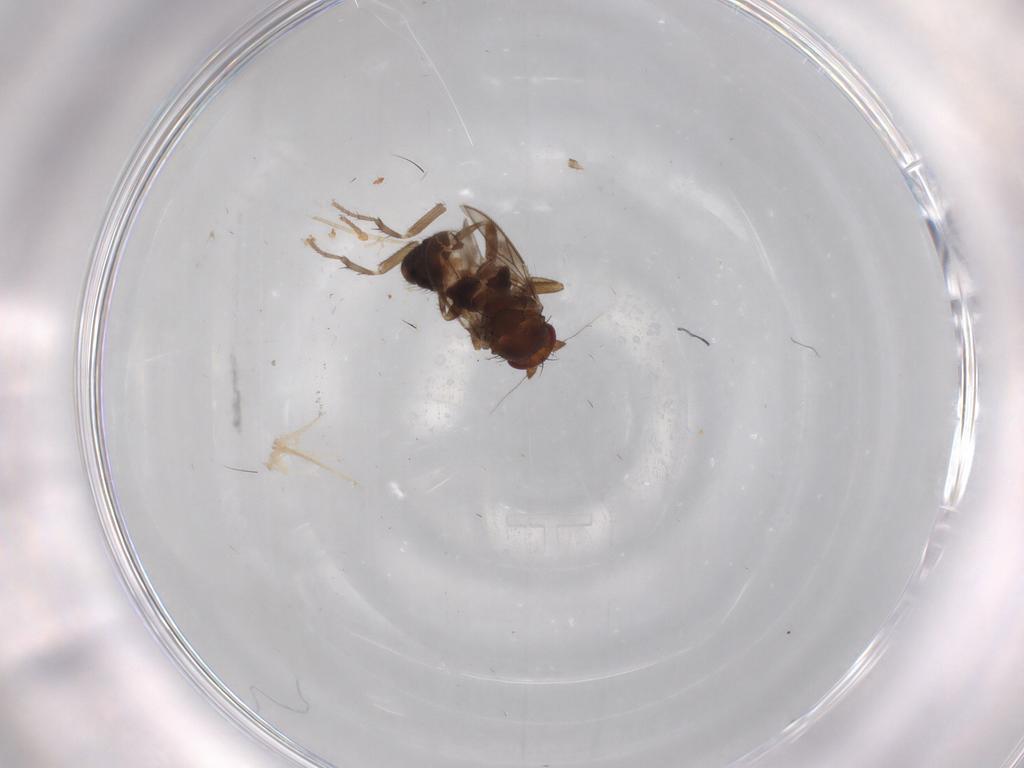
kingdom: Animalia
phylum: Arthropoda
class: Insecta
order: Diptera
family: Sphaeroceridae
